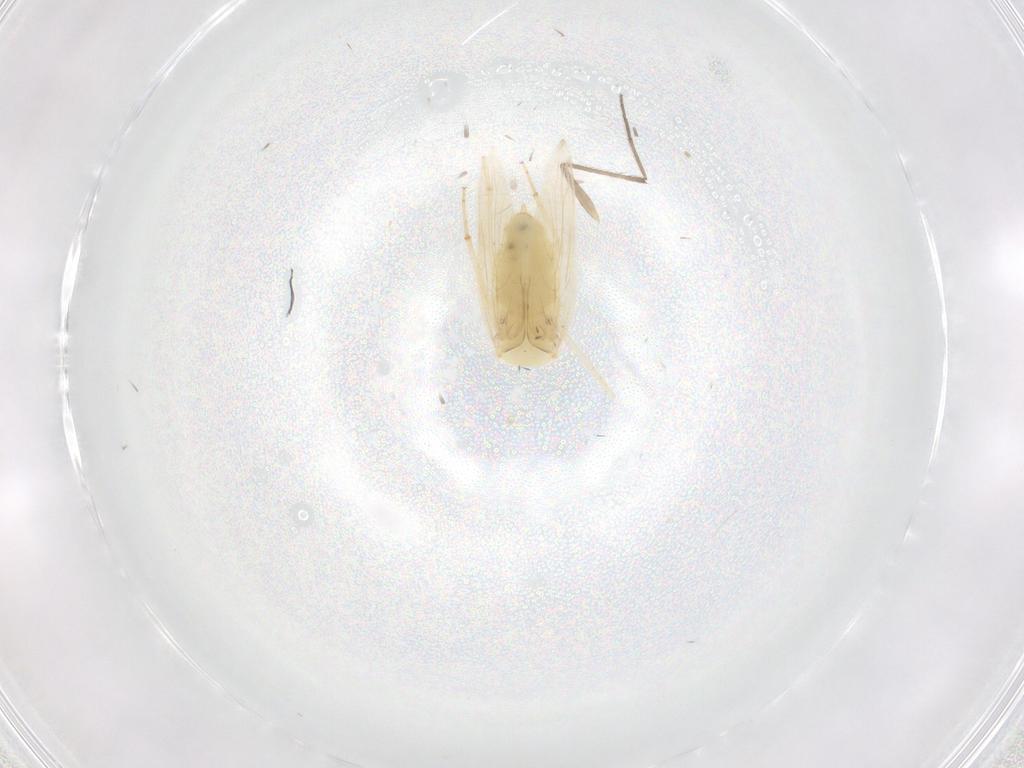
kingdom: Animalia
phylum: Arthropoda
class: Insecta
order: Psocodea
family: Lepidopsocidae
